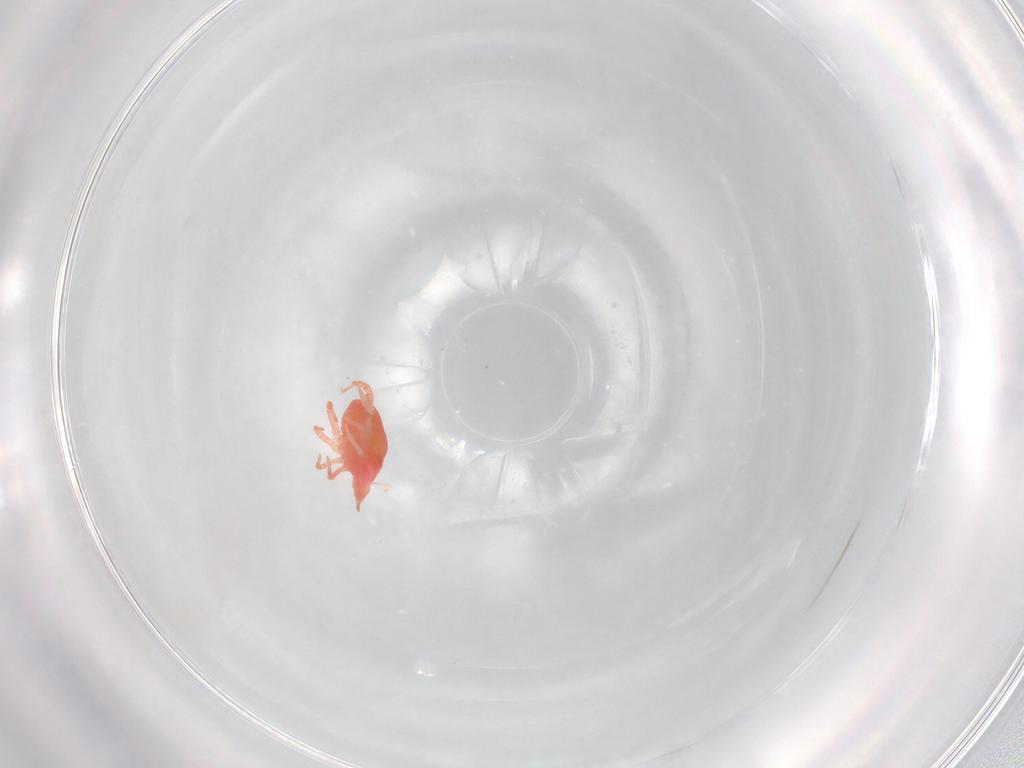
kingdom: Animalia
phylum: Arthropoda
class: Arachnida
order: Trombidiformes
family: Bdellidae
